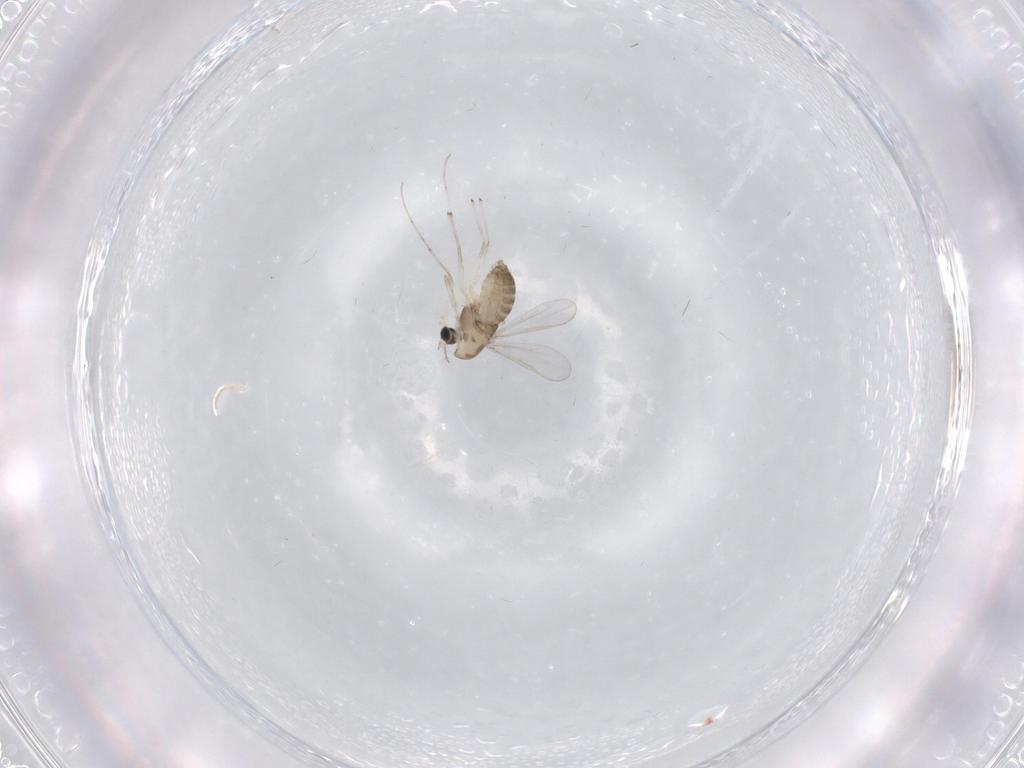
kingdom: Animalia
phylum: Arthropoda
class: Insecta
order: Diptera
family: Chironomidae
